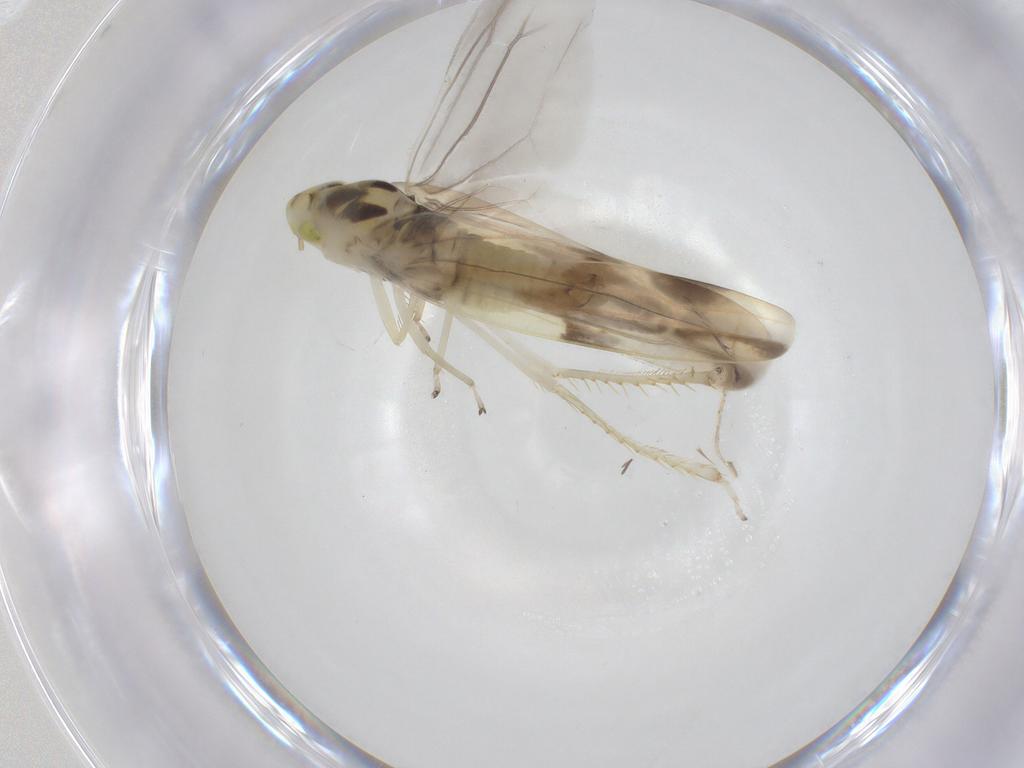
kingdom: Animalia
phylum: Arthropoda
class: Insecta
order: Hemiptera
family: Cicadellidae
